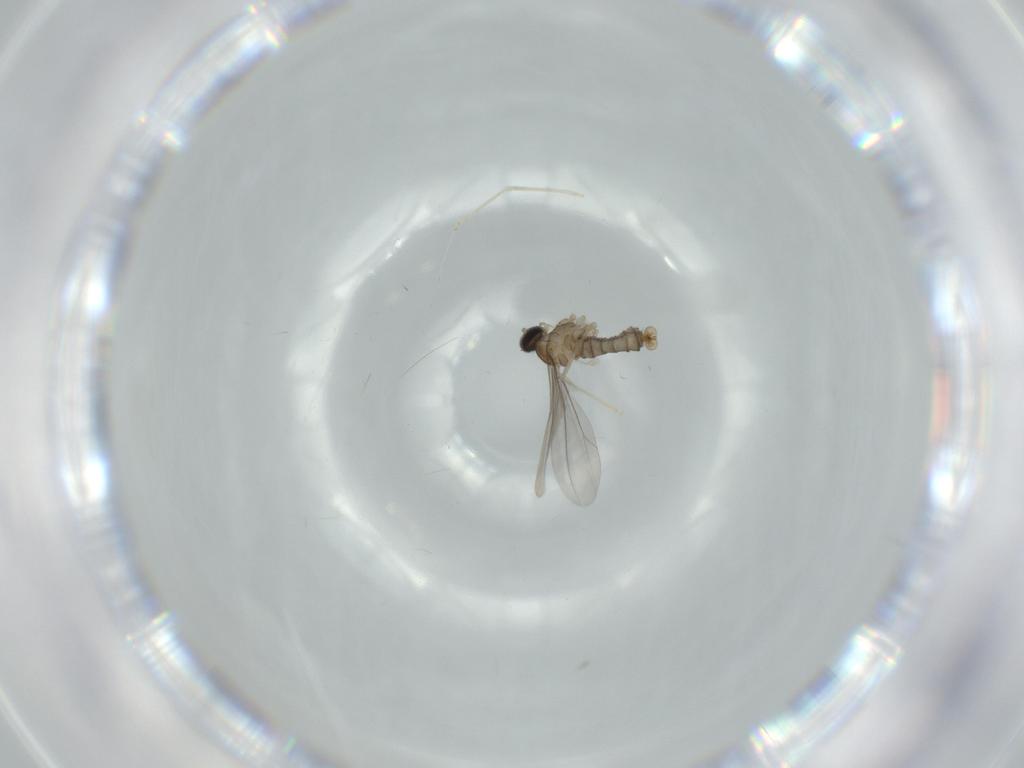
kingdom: Animalia
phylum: Arthropoda
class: Insecta
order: Diptera
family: Cecidomyiidae
